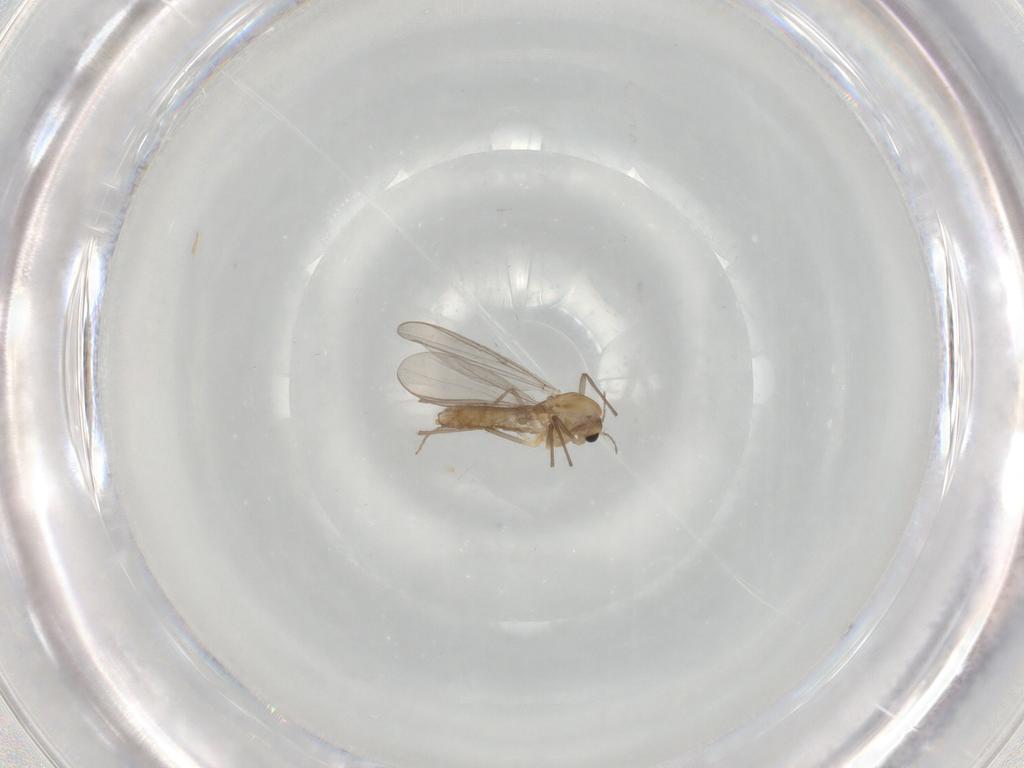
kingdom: Animalia
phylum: Arthropoda
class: Insecta
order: Diptera
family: Chironomidae
